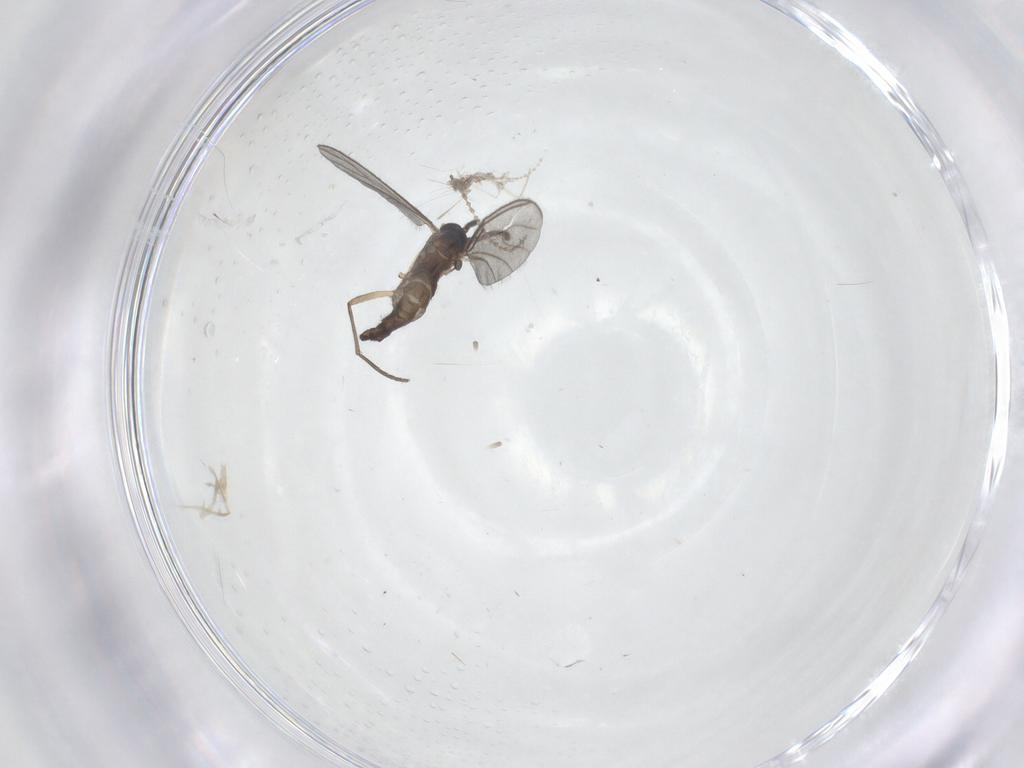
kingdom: Animalia
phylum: Arthropoda
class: Insecta
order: Diptera
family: Sciaridae
